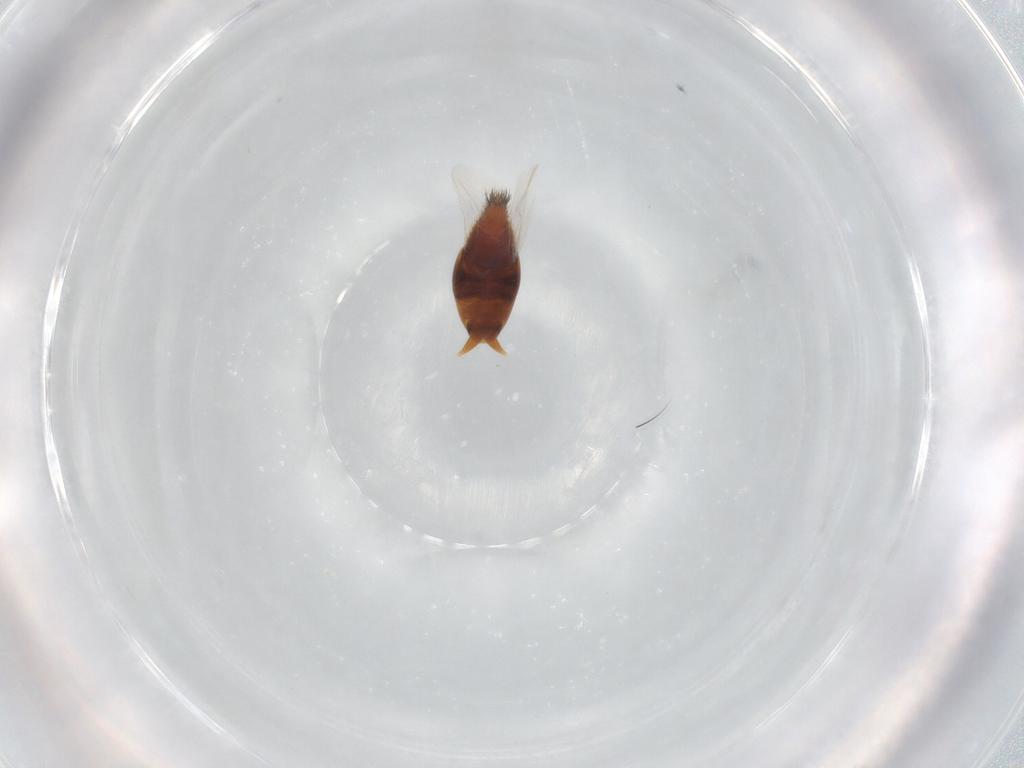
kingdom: Animalia
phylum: Arthropoda
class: Insecta
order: Coleoptera
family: Staphylinidae
